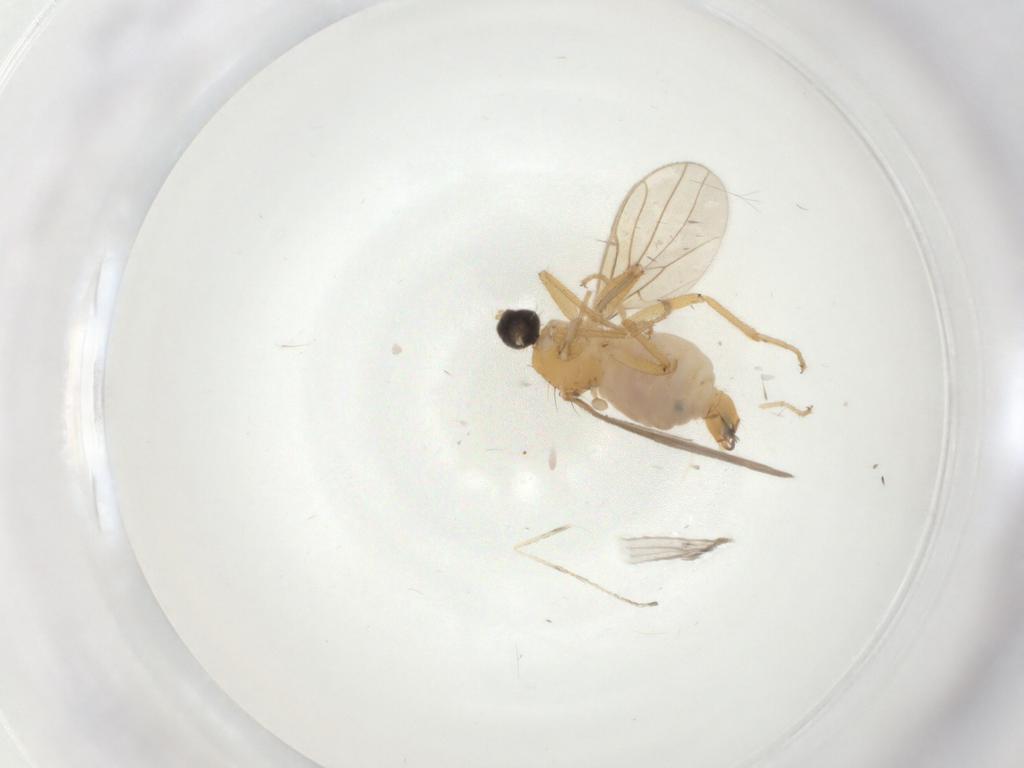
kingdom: Animalia
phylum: Arthropoda
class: Insecta
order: Diptera
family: Hybotidae
